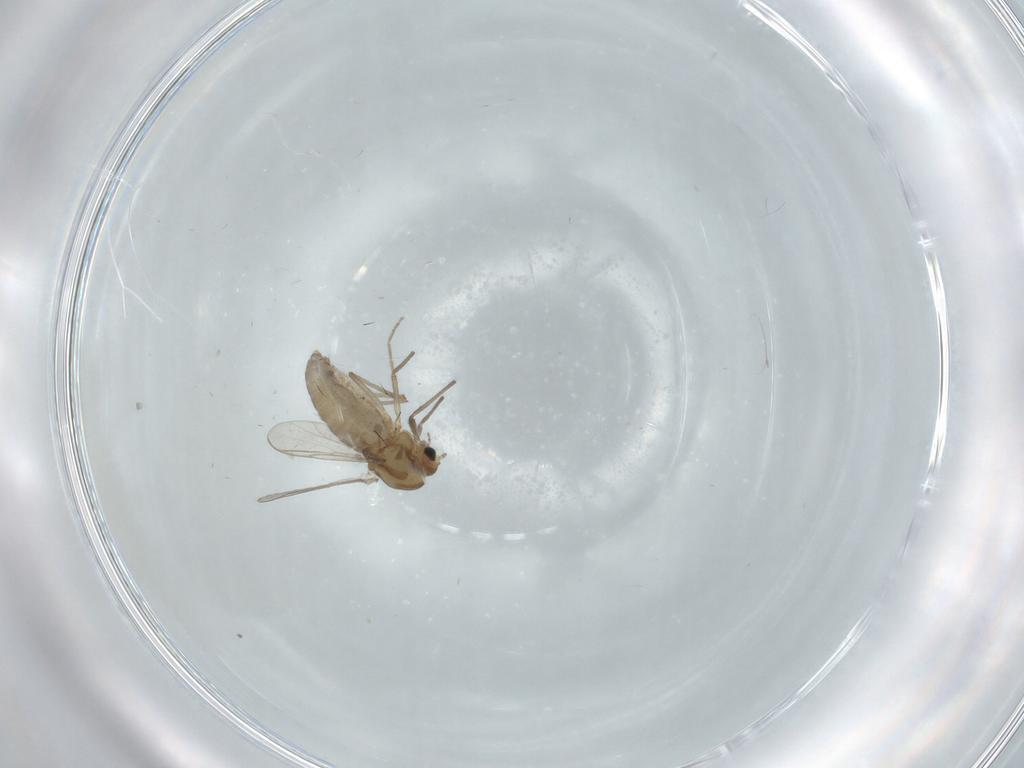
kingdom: Animalia
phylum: Arthropoda
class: Insecta
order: Diptera
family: Chironomidae
